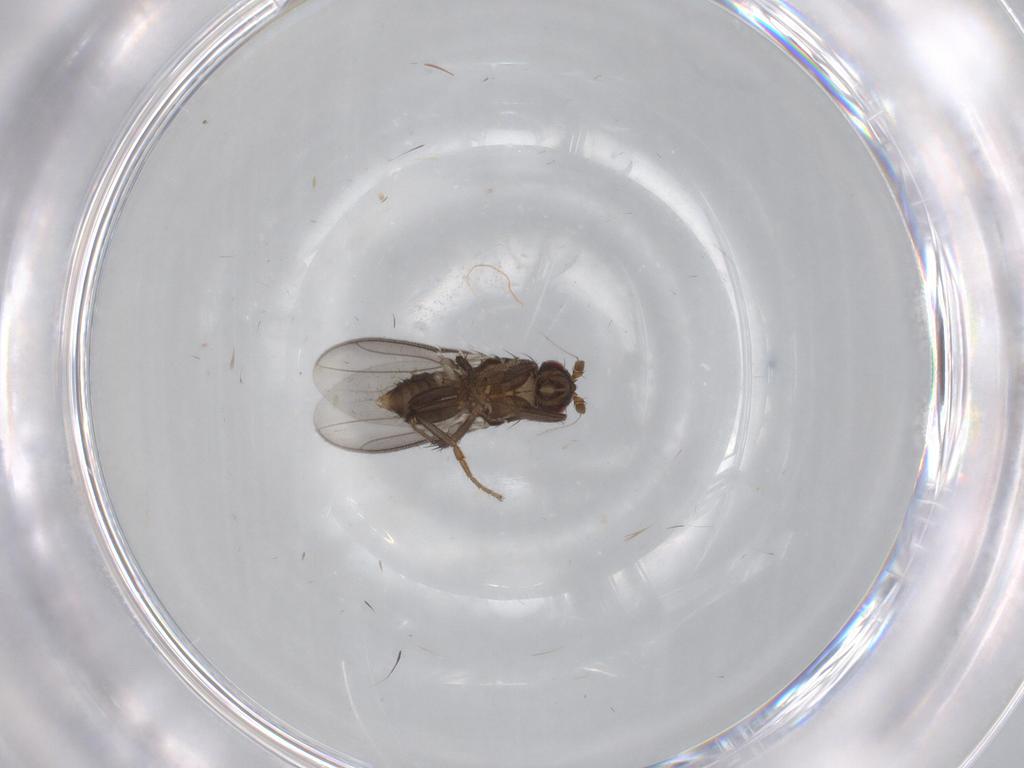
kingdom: Animalia
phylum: Arthropoda
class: Insecta
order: Diptera
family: Sphaeroceridae
